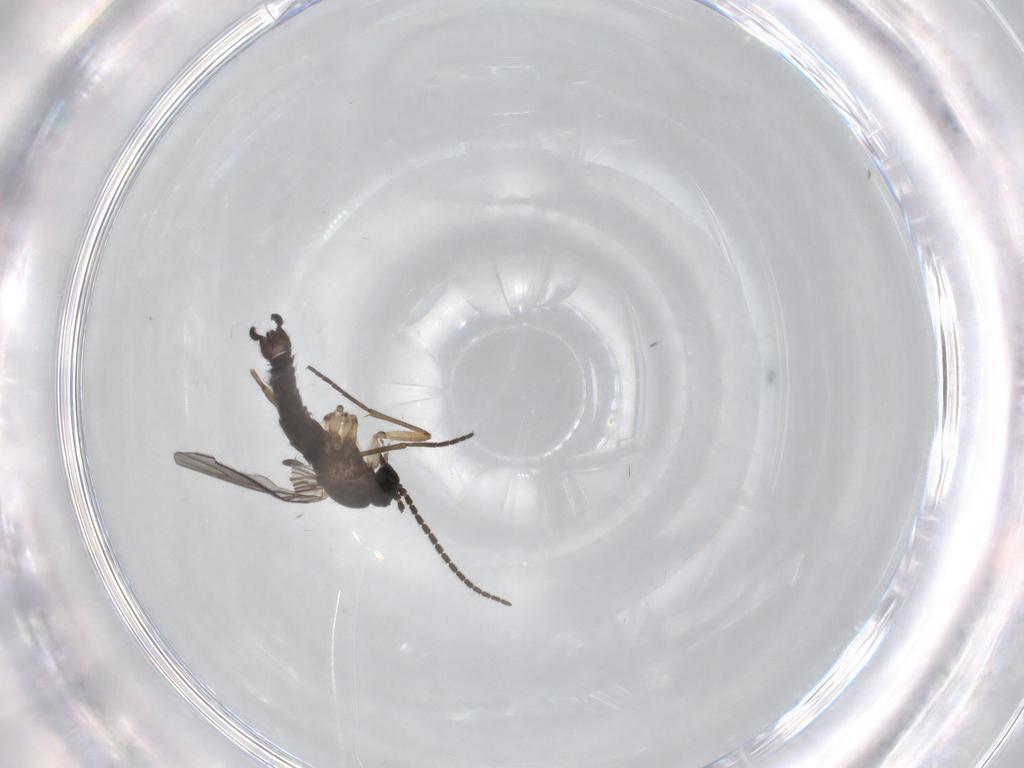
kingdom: Animalia
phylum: Arthropoda
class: Insecta
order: Diptera
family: Sciaridae
